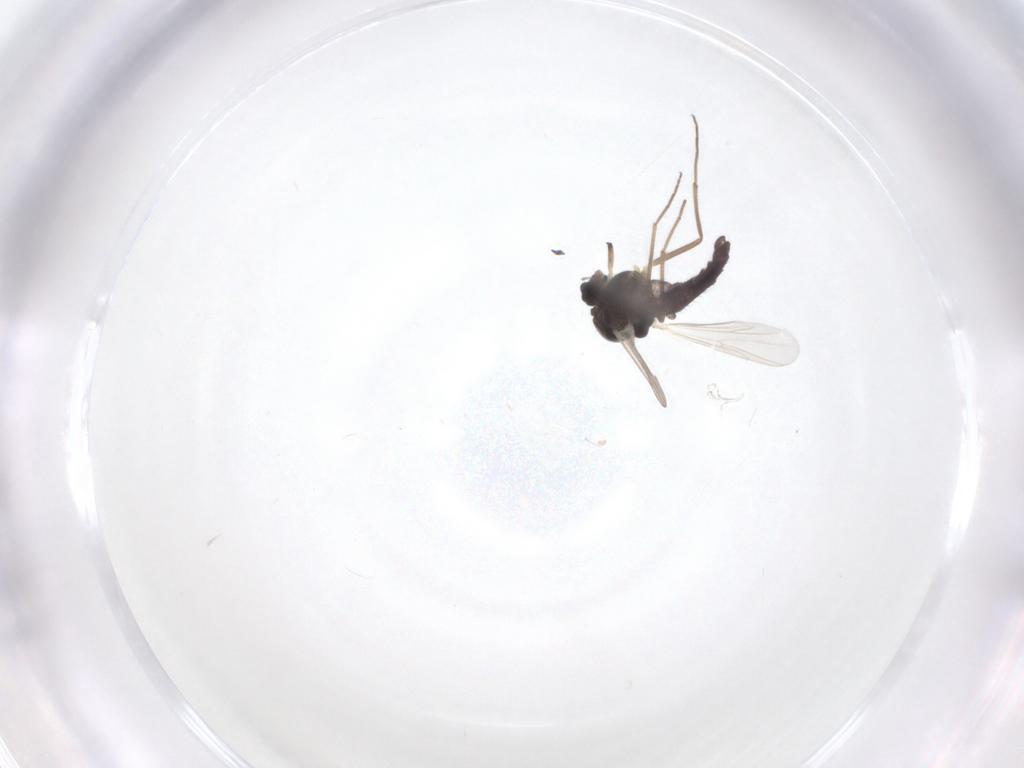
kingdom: Animalia
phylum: Arthropoda
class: Insecta
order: Diptera
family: Chironomidae
